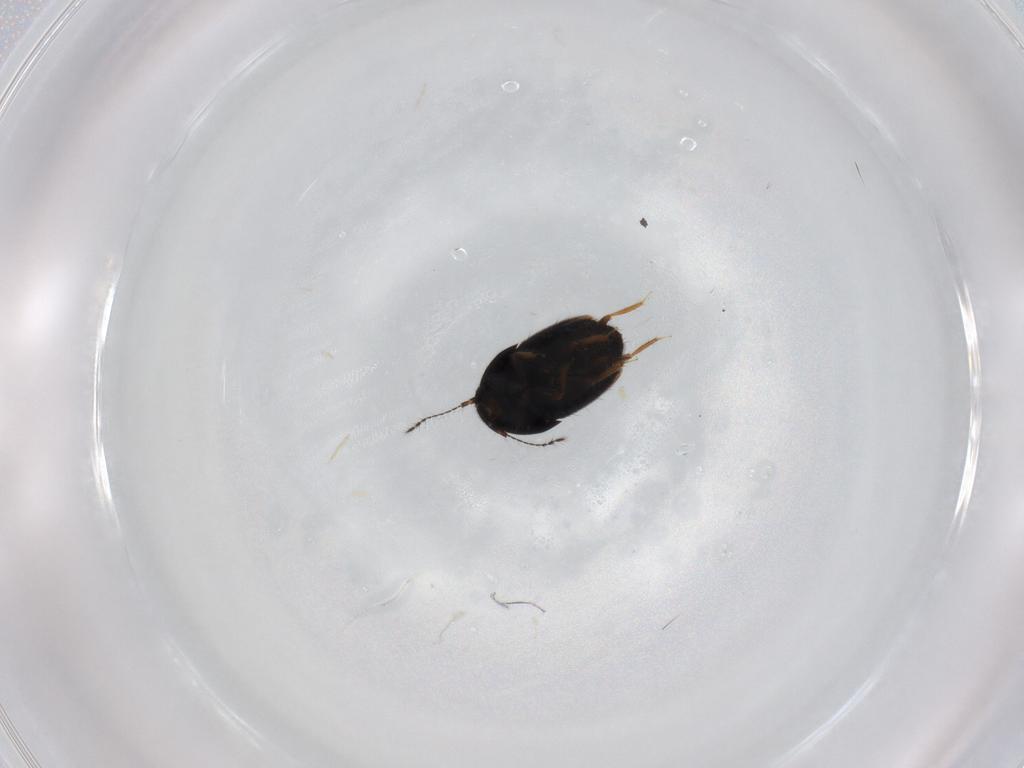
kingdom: Animalia
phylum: Arthropoda
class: Insecta
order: Coleoptera
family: Ptiliidae
